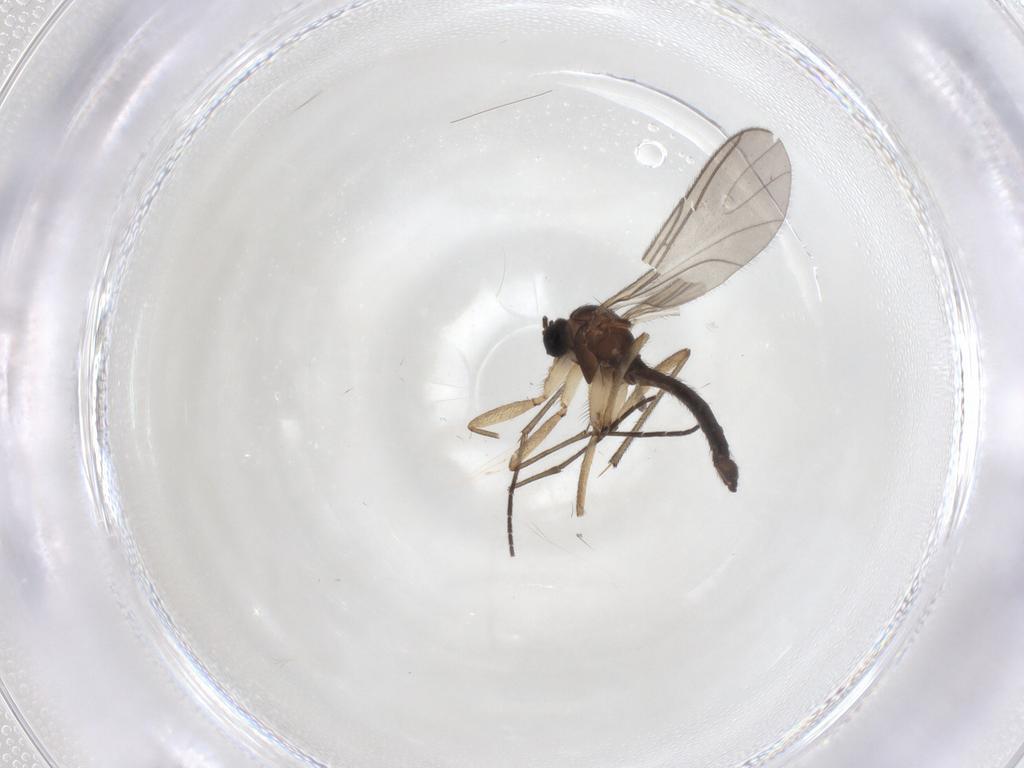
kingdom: Animalia
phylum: Arthropoda
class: Insecta
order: Diptera
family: Sciaridae
